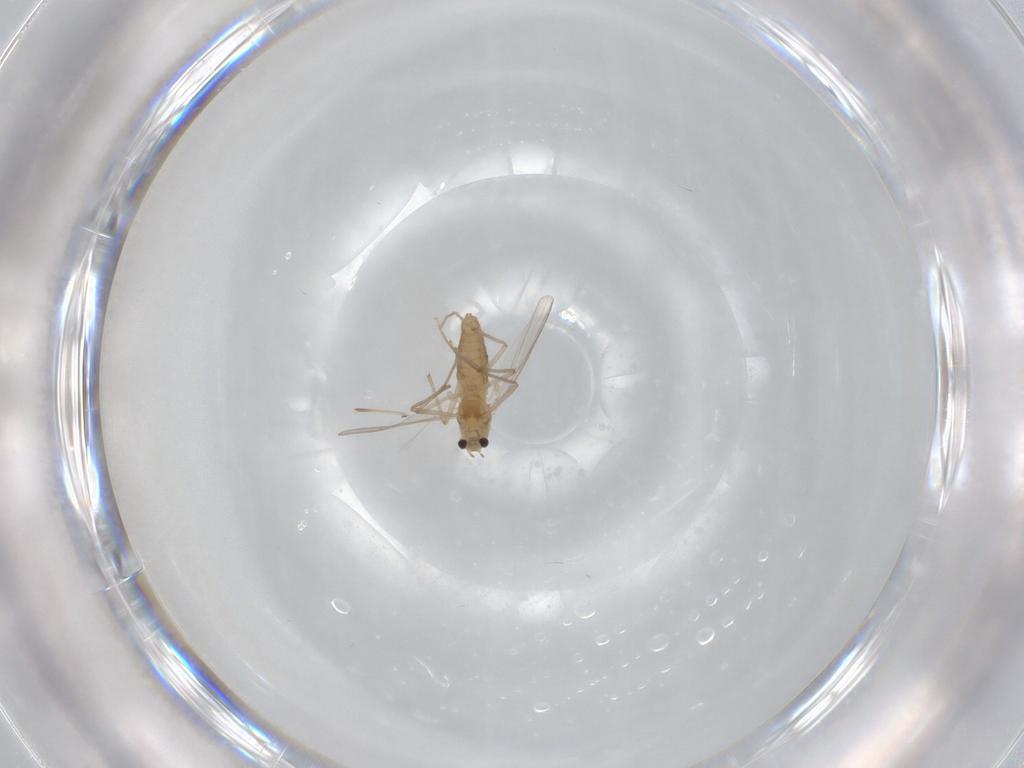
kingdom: Animalia
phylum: Arthropoda
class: Insecta
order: Diptera
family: Chironomidae
